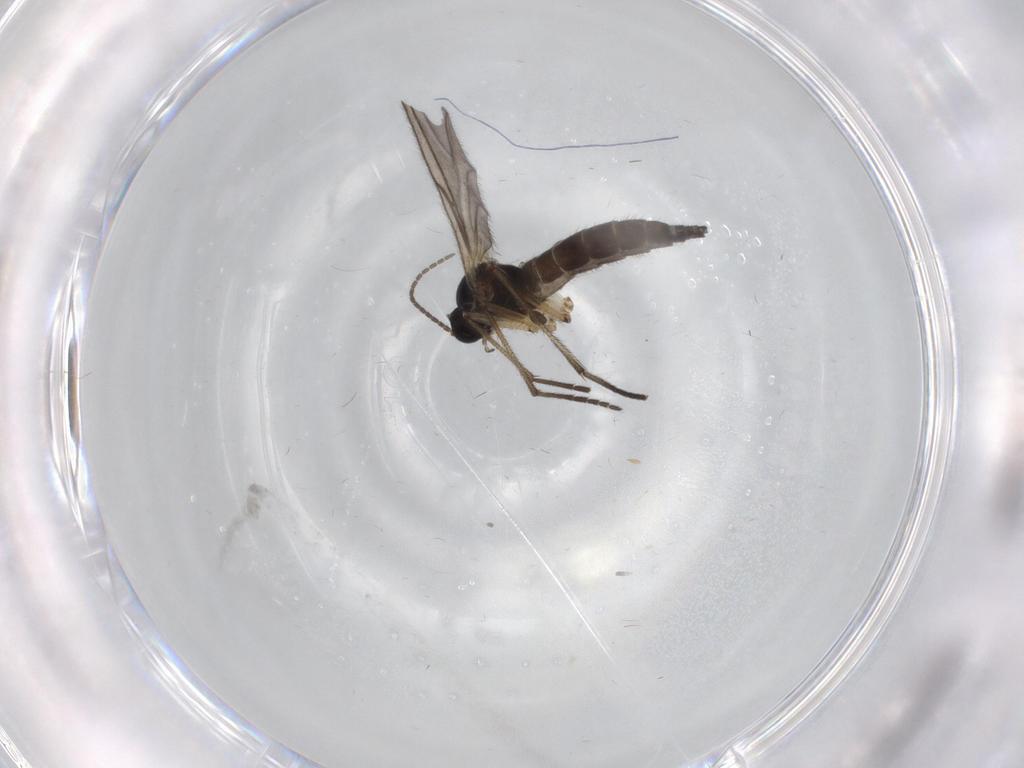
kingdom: Animalia
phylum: Arthropoda
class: Insecta
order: Diptera
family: Sciaridae
